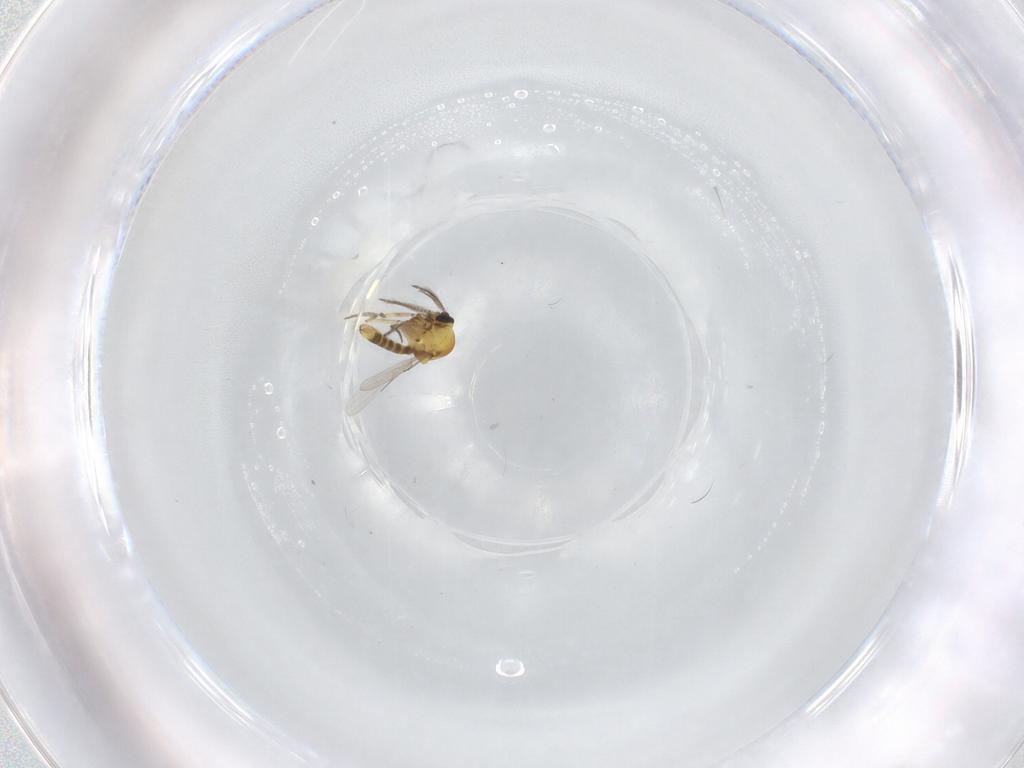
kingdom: Animalia
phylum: Arthropoda
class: Insecta
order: Diptera
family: Ceratopogonidae
